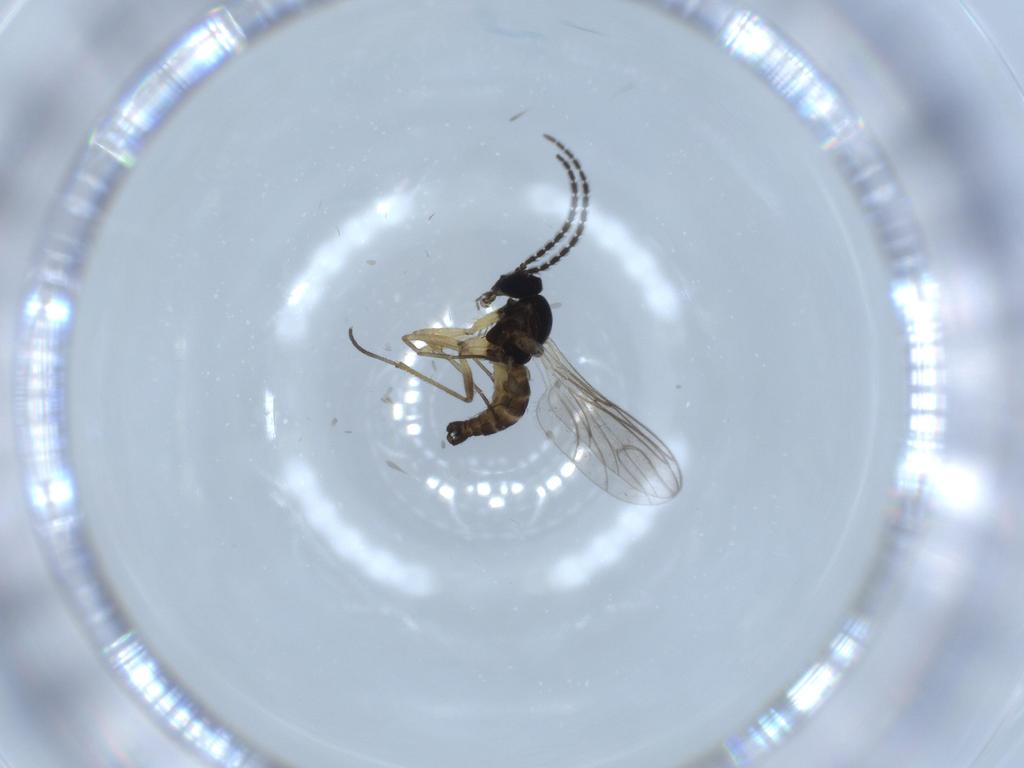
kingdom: Animalia
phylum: Arthropoda
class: Insecta
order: Diptera
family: Sciaridae
